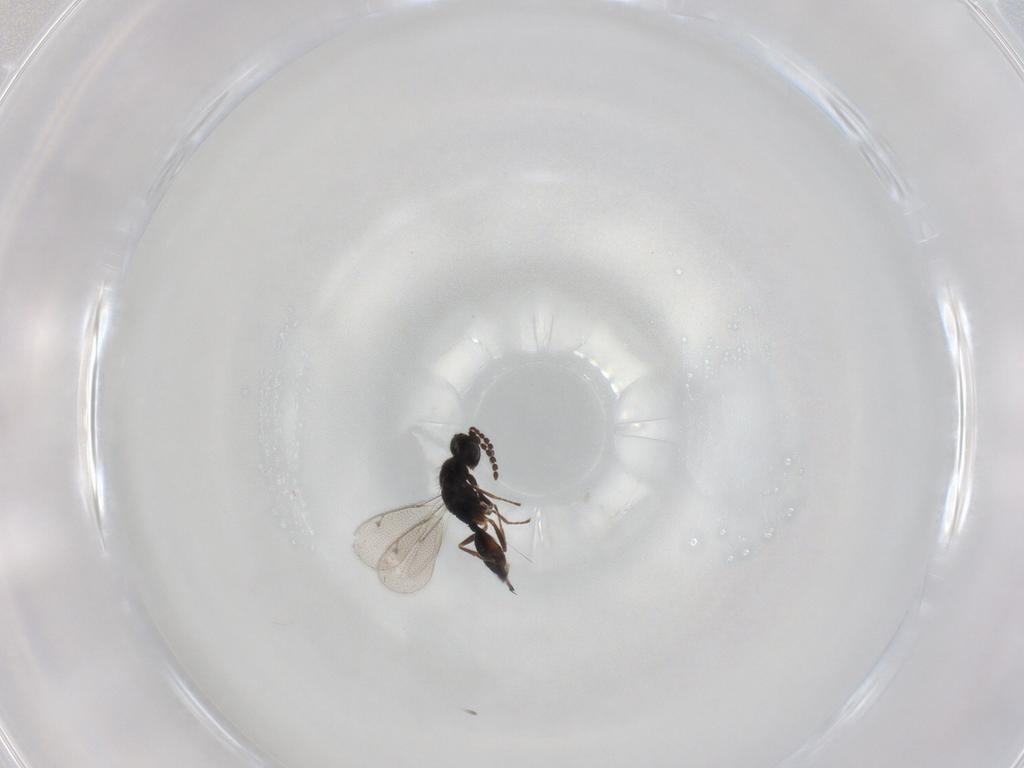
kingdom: Animalia
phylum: Arthropoda
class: Insecta
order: Hymenoptera
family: Eulophidae
